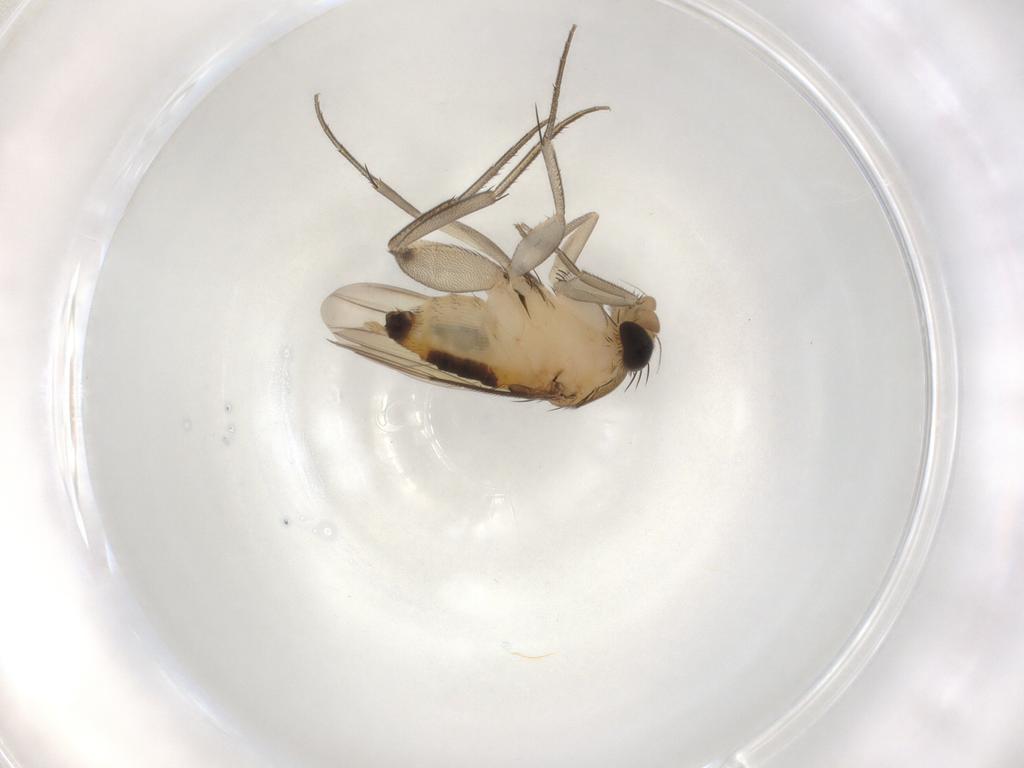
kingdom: Animalia
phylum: Arthropoda
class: Insecta
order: Diptera
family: Phoridae
